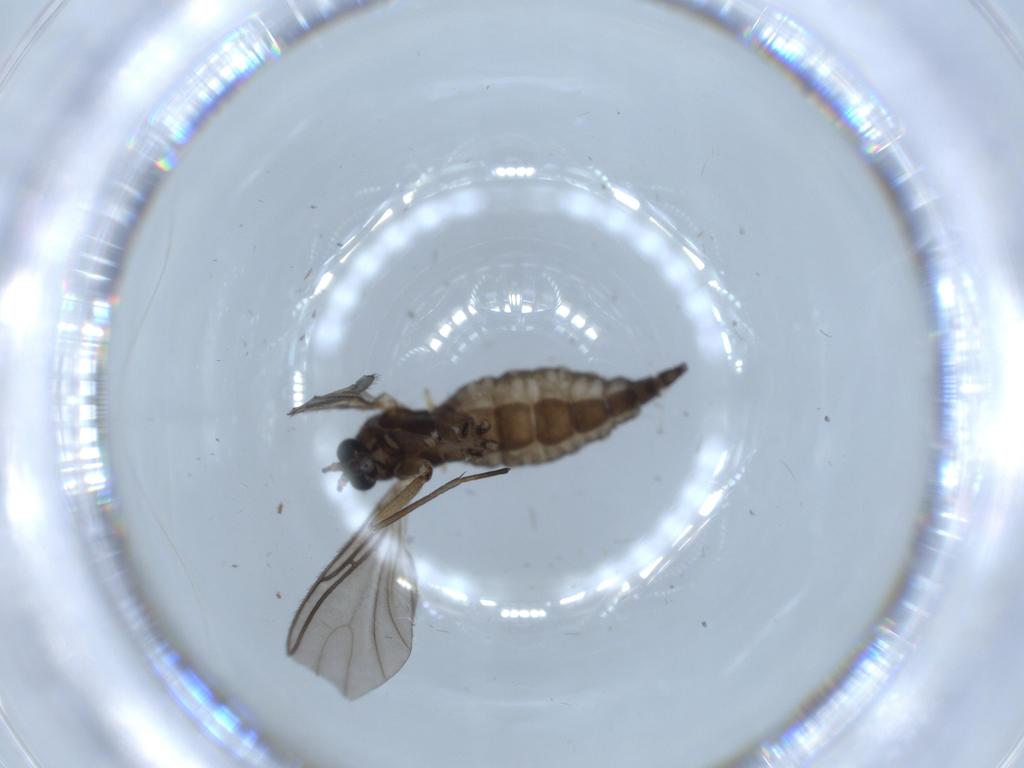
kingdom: Animalia
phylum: Arthropoda
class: Insecta
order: Diptera
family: Sciaridae
